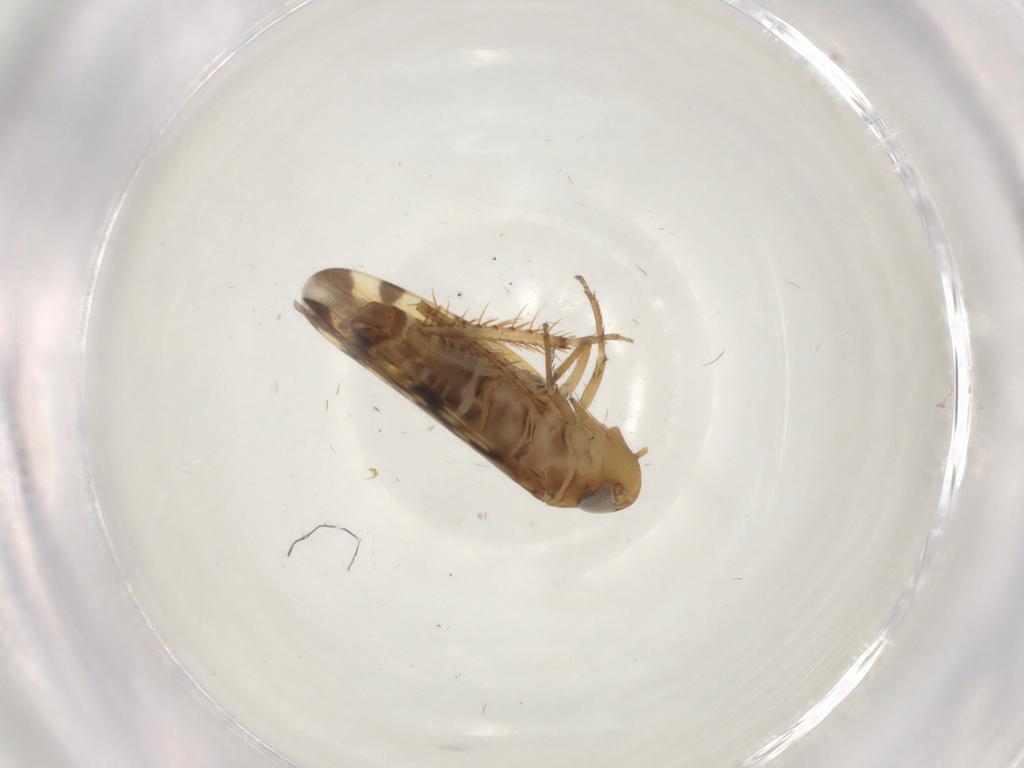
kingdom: Animalia
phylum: Arthropoda
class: Insecta
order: Hemiptera
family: Cicadellidae
